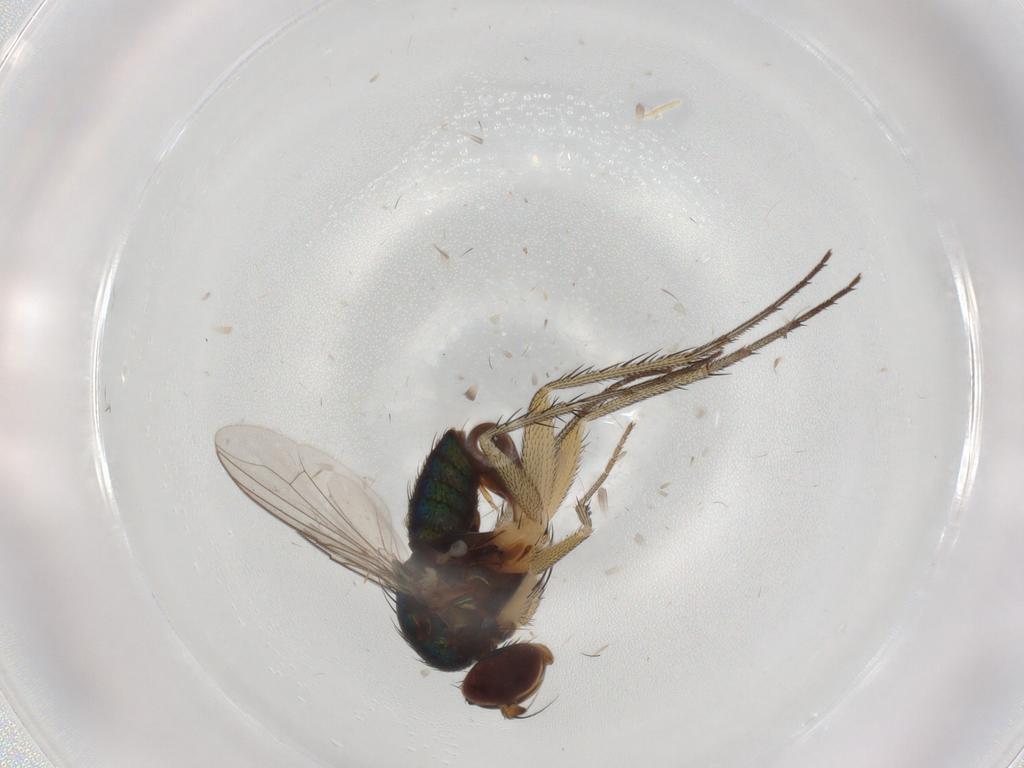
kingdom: Animalia
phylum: Arthropoda
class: Insecta
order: Diptera
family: Dolichopodidae
